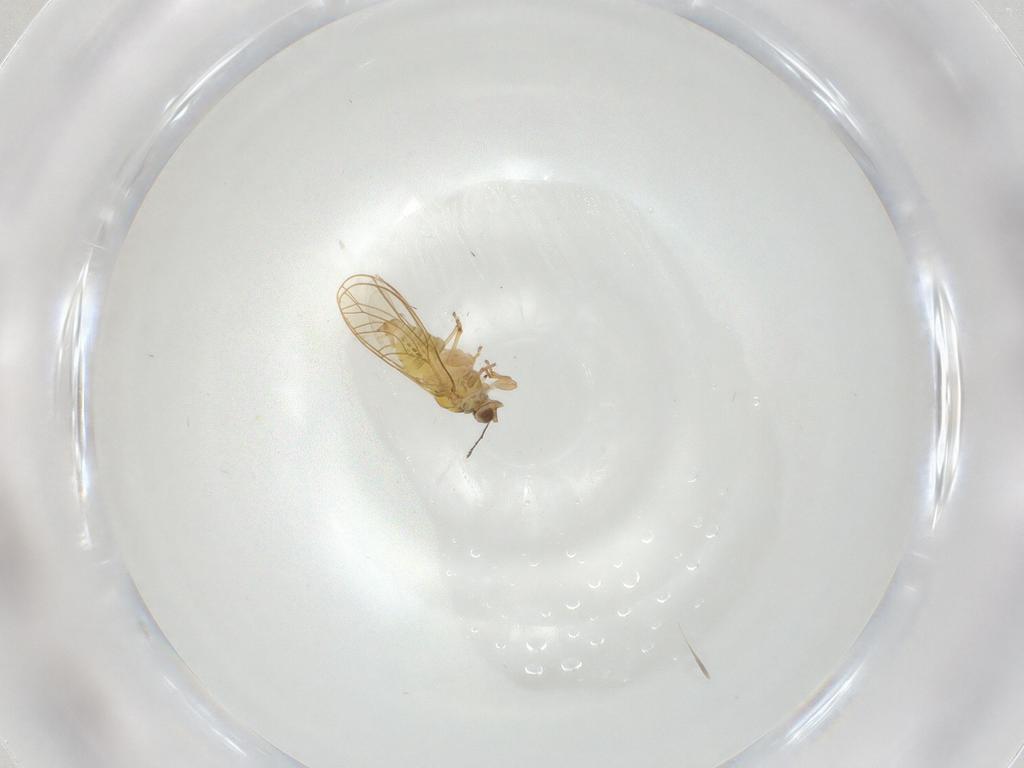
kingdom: Animalia
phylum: Arthropoda
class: Insecta
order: Hemiptera
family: Psylloidea_incertae_sedis
